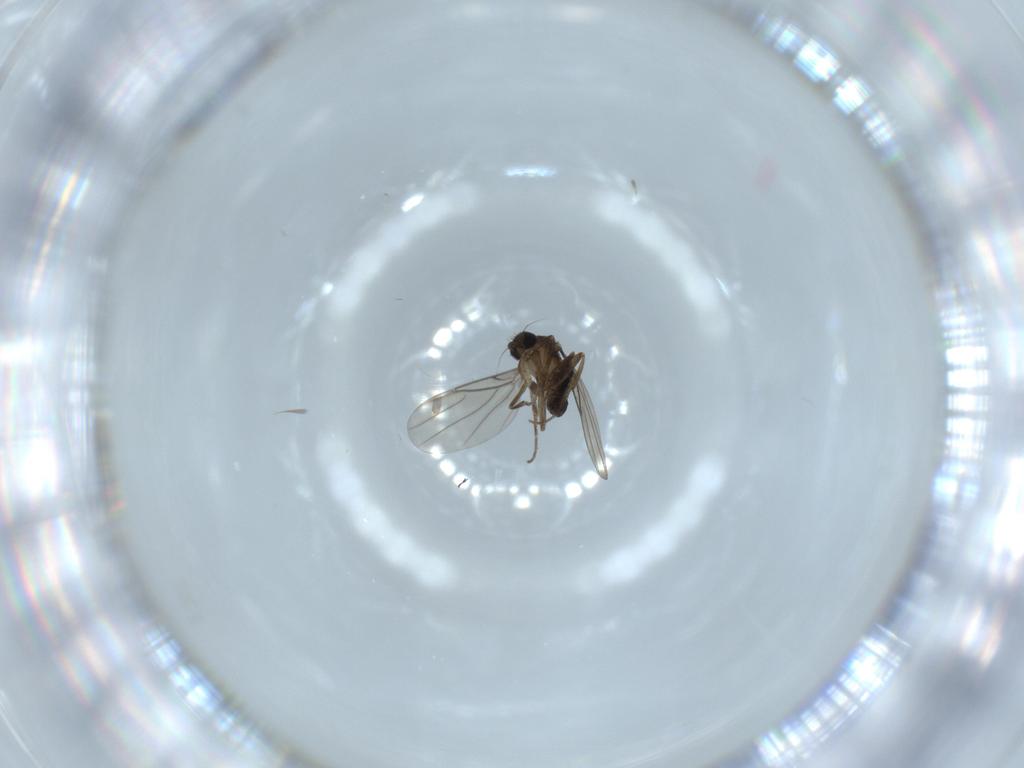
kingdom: Animalia
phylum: Arthropoda
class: Insecta
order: Diptera
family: Phoridae
